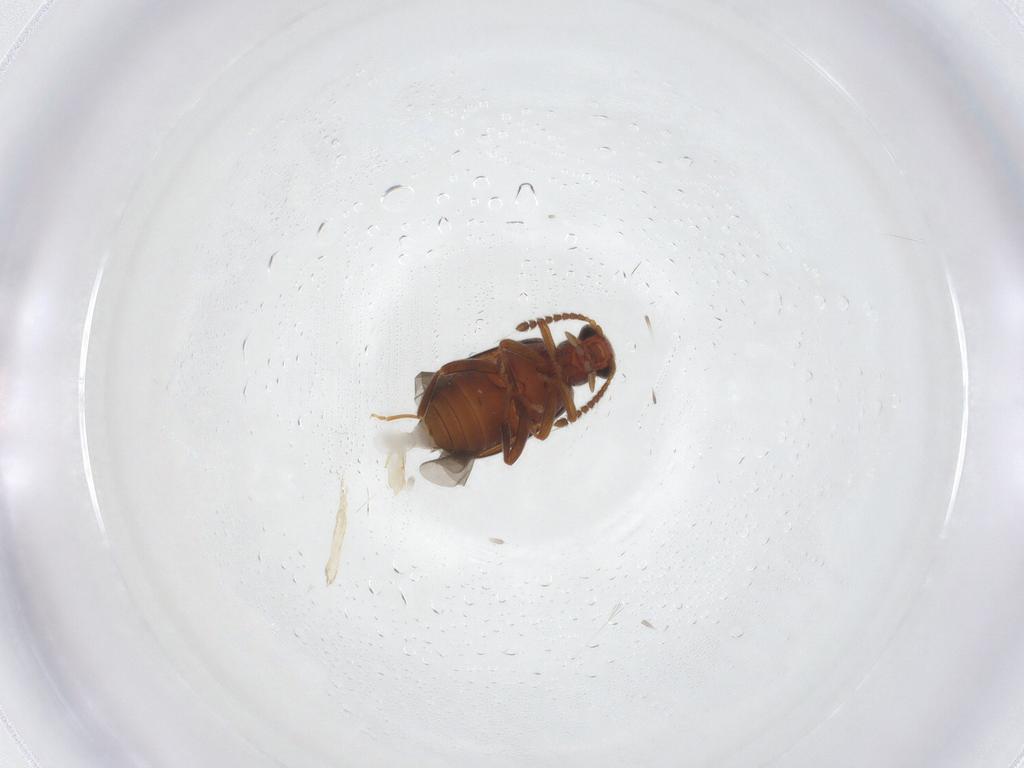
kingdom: Animalia
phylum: Arthropoda
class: Insecta
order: Coleoptera
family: Aderidae
